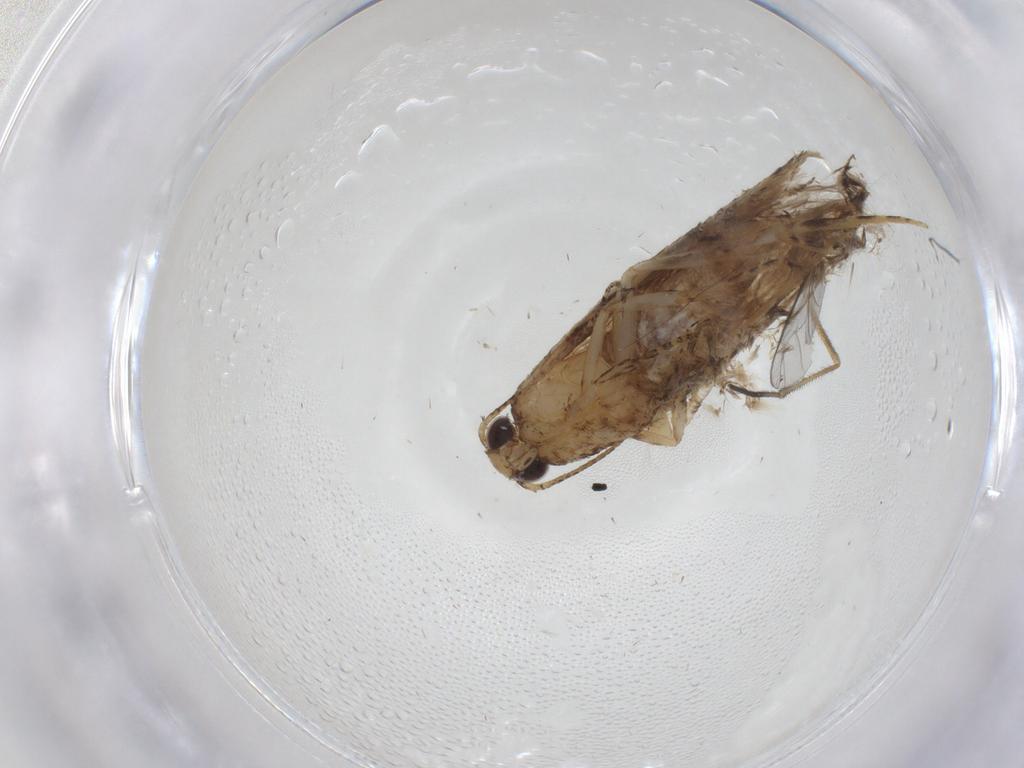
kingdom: Animalia
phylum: Arthropoda
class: Insecta
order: Lepidoptera
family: Gelechiidae
